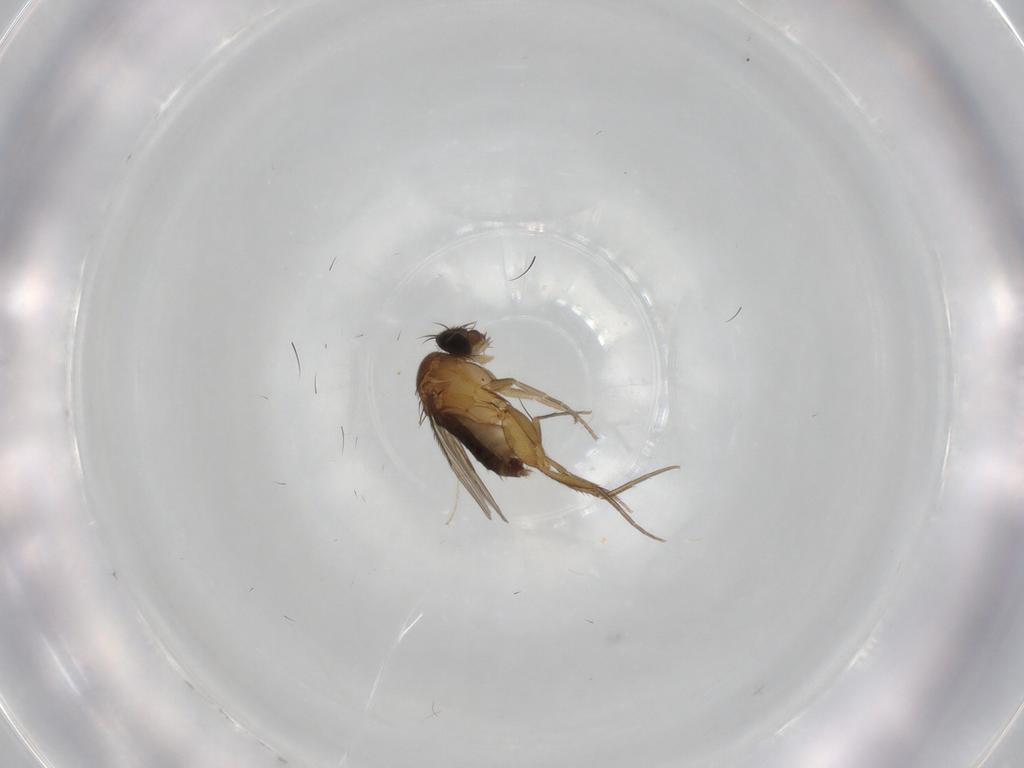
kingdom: Animalia
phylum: Arthropoda
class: Insecta
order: Diptera
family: Phoridae
